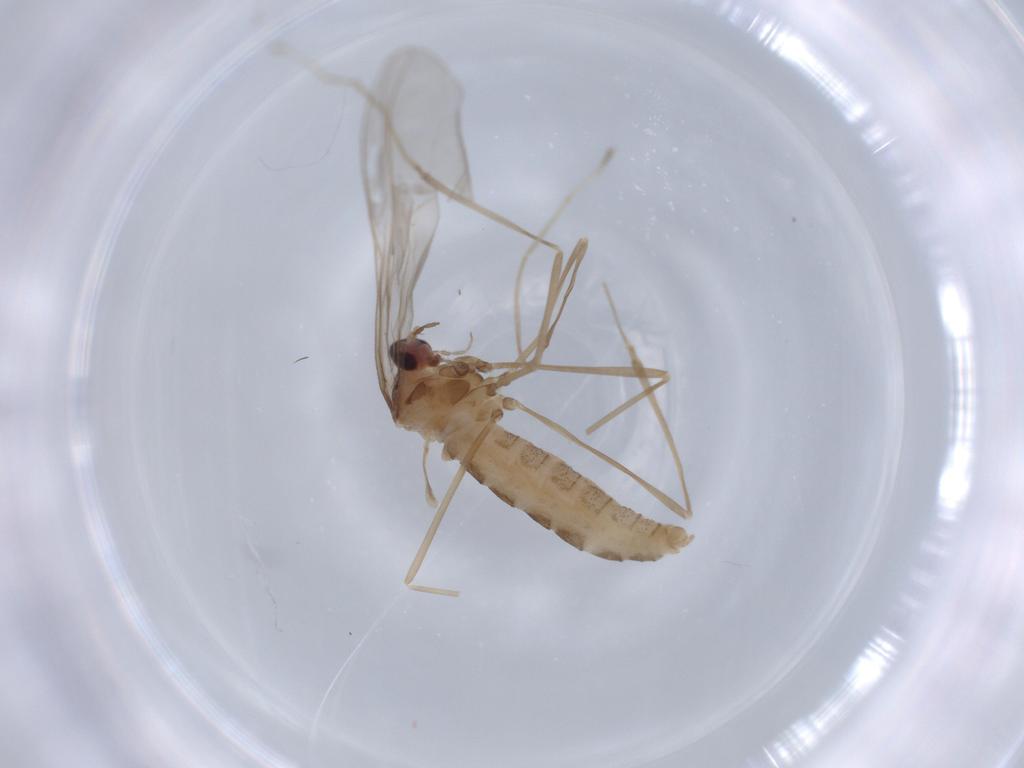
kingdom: Animalia
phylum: Arthropoda
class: Insecta
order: Diptera
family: Cecidomyiidae
